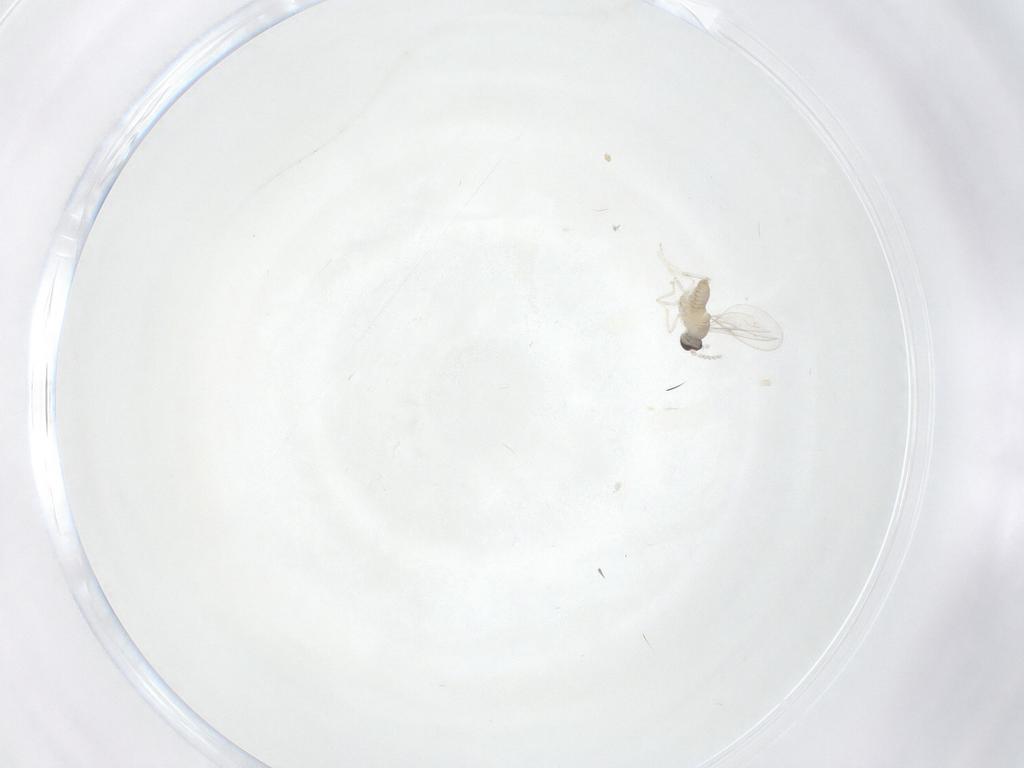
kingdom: Animalia
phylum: Arthropoda
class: Insecta
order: Diptera
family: Cecidomyiidae
